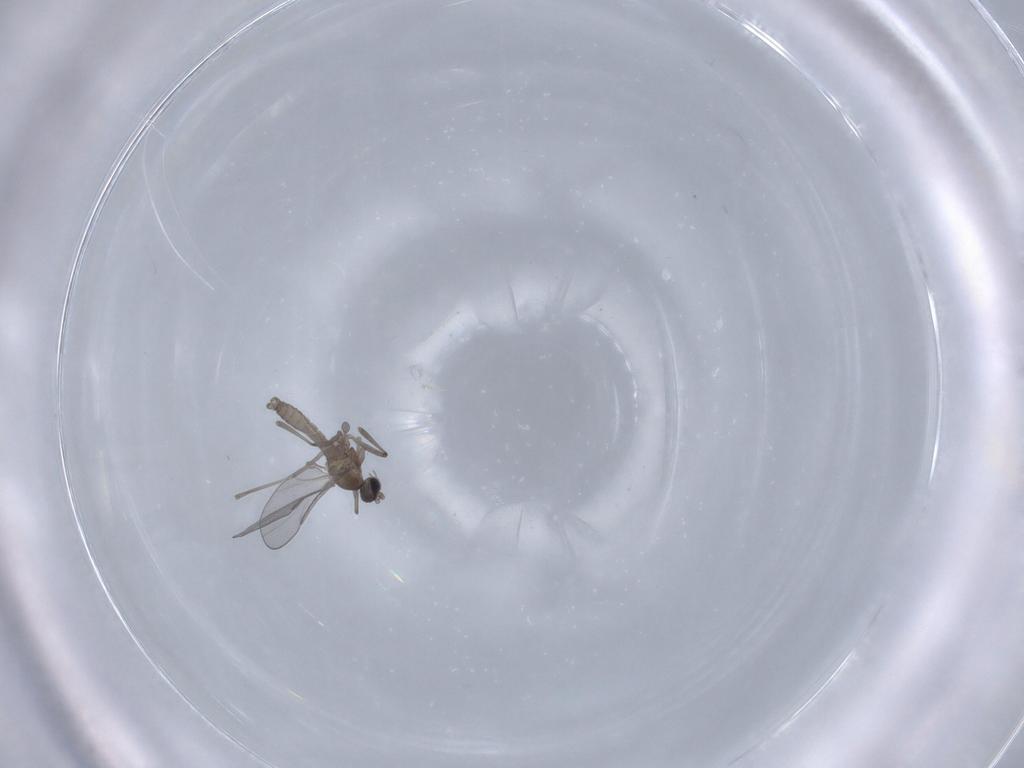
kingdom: Animalia
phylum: Arthropoda
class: Insecta
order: Diptera
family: Cecidomyiidae
